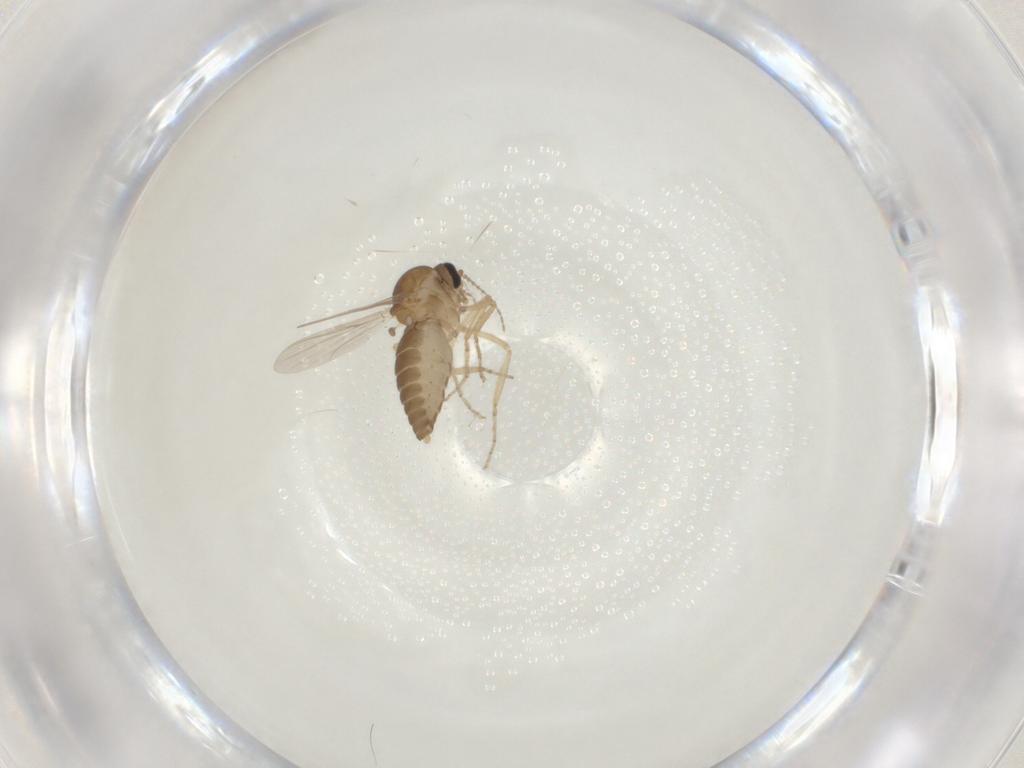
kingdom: Animalia
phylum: Arthropoda
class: Insecta
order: Diptera
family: Ceratopogonidae
